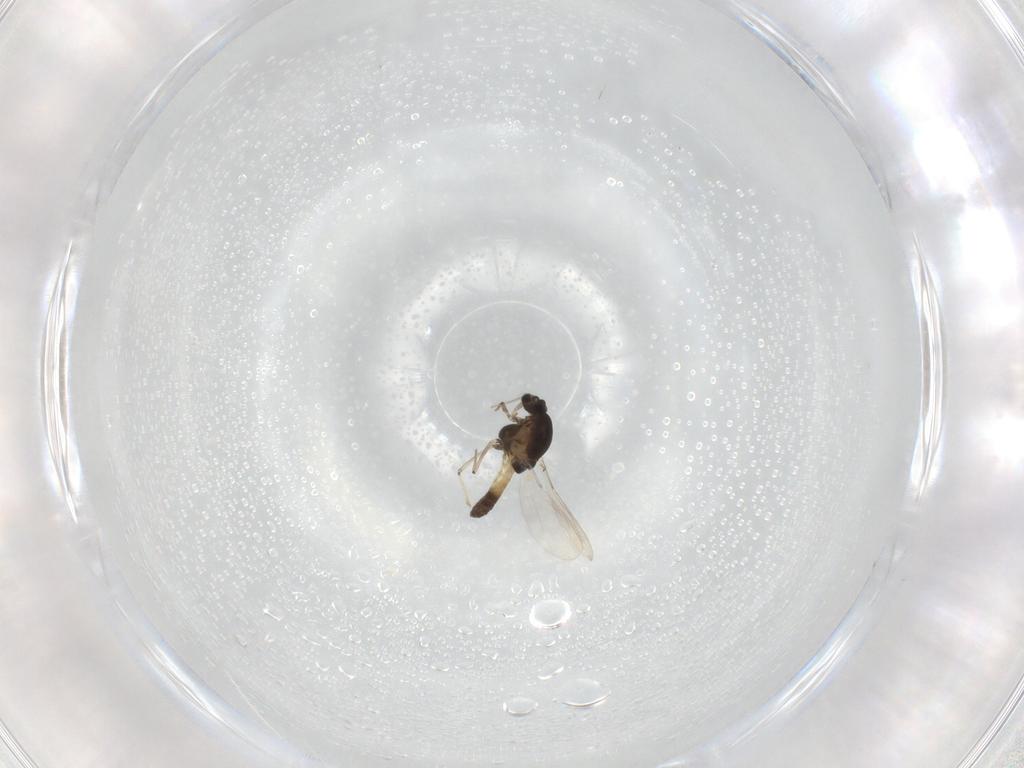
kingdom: Animalia
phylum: Arthropoda
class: Insecta
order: Diptera
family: Chironomidae
